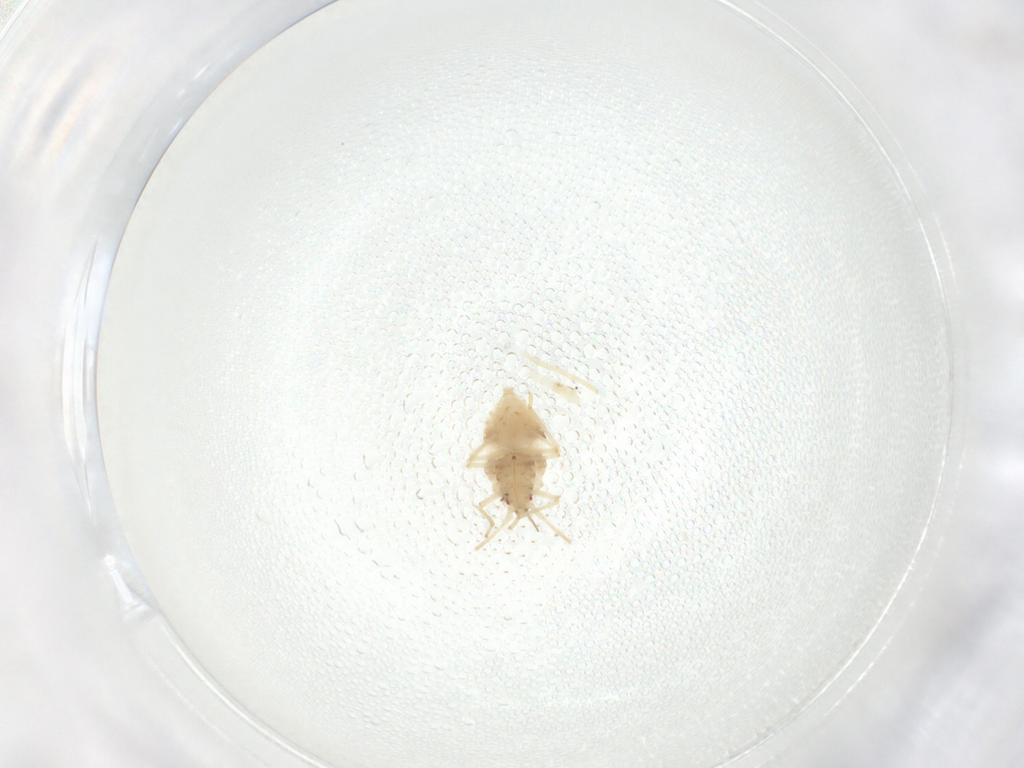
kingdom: Animalia
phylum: Arthropoda
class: Insecta
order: Hemiptera
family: Tingidae
